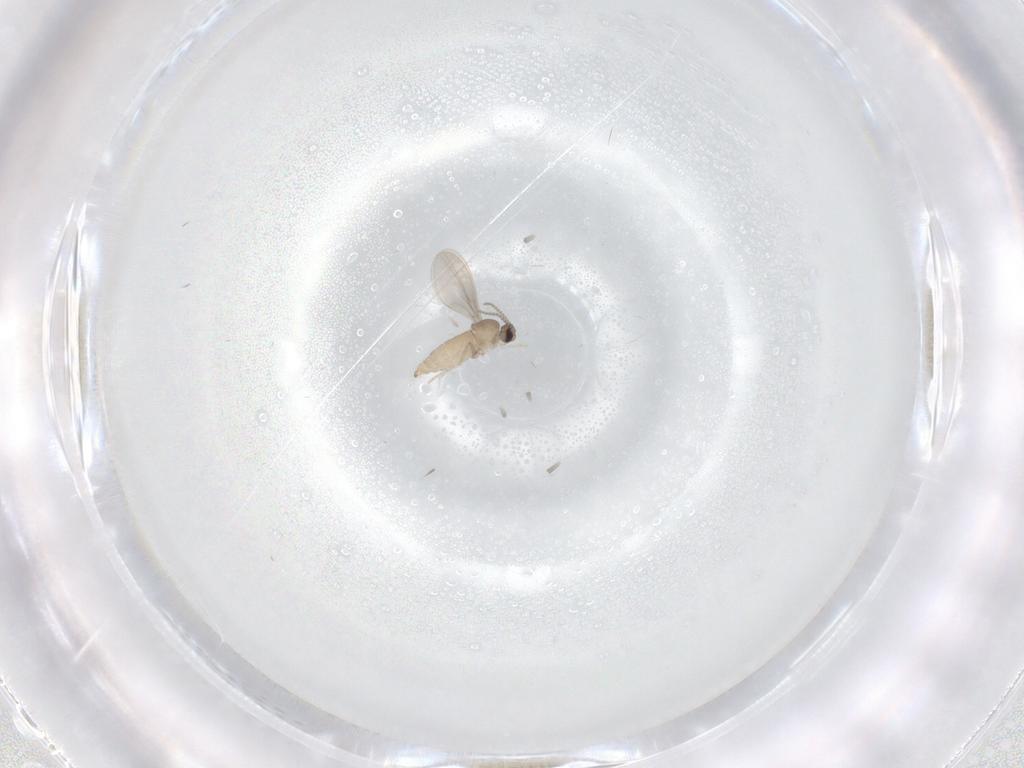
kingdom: Animalia
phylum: Arthropoda
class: Insecta
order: Diptera
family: Cecidomyiidae
